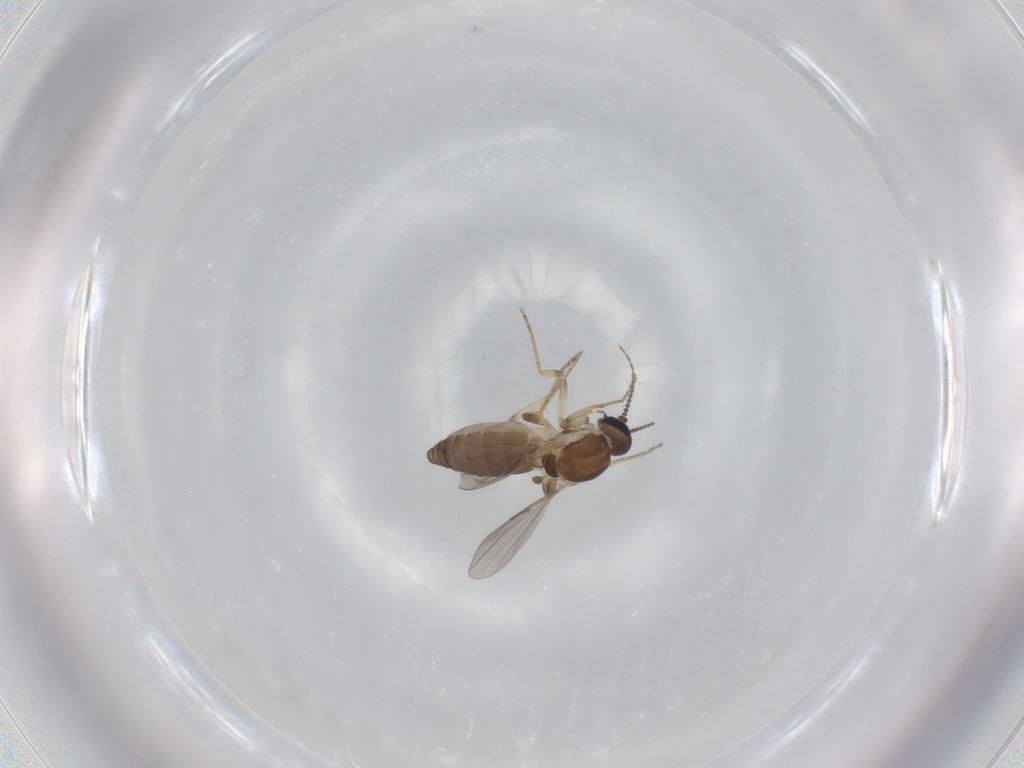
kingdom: Animalia
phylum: Arthropoda
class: Insecta
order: Diptera
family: Ceratopogonidae
